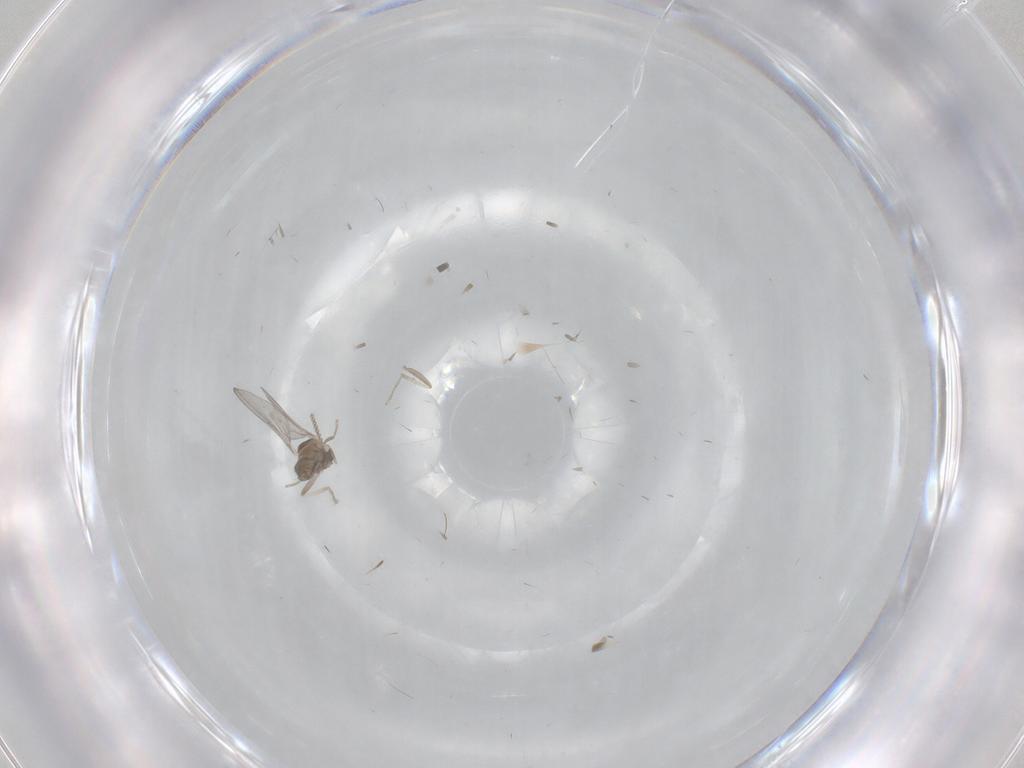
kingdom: Animalia
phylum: Arthropoda
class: Insecta
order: Diptera
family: Cecidomyiidae
